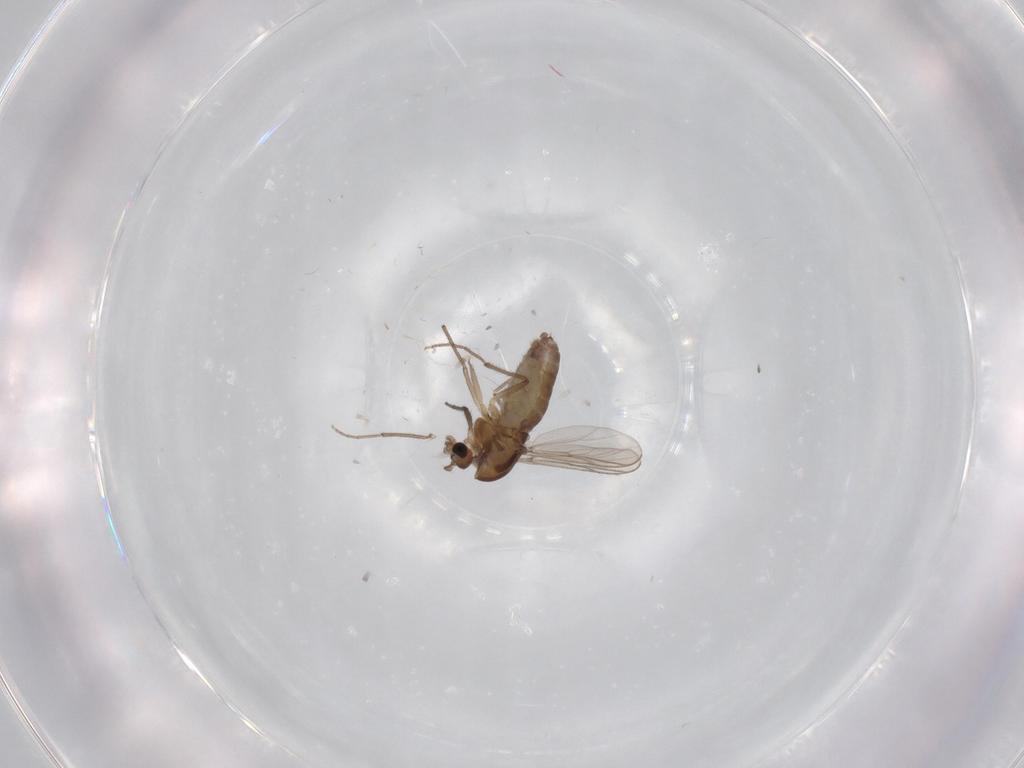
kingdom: Animalia
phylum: Arthropoda
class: Insecta
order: Diptera
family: Chironomidae
